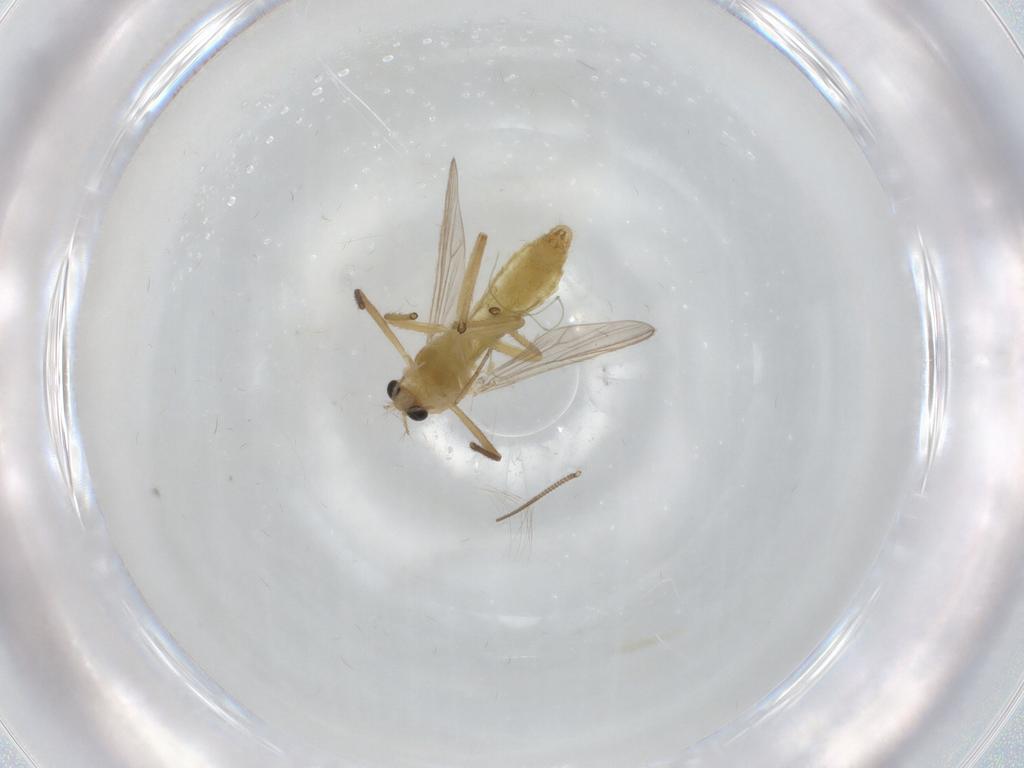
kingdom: Animalia
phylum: Arthropoda
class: Insecta
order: Diptera
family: Chironomidae
